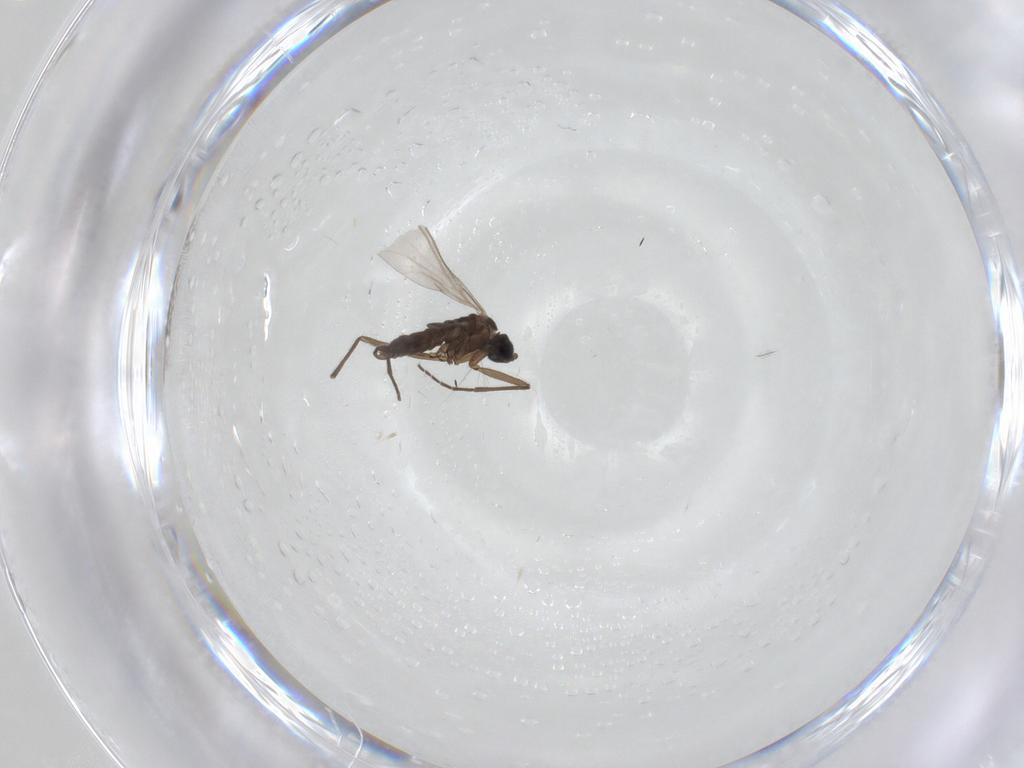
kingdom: Animalia
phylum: Arthropoda
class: Insecta
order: Diptera
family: Sciaridae
